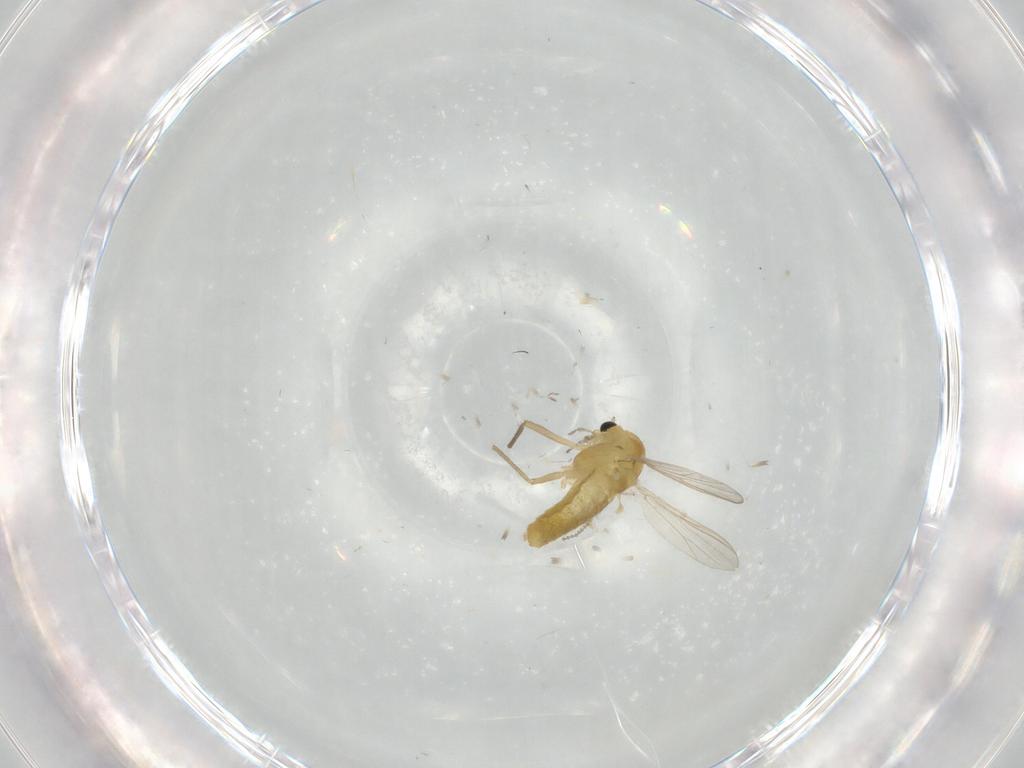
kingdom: Animalia
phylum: Arthropoda
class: Insecta
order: Diptera
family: Chironomidae
